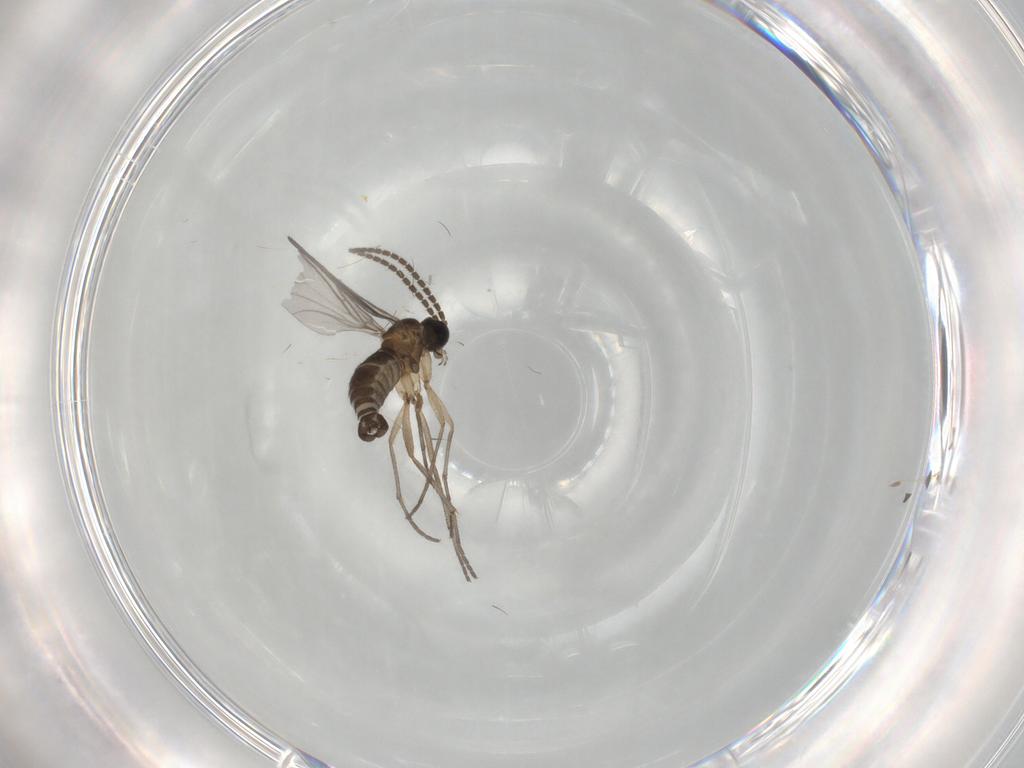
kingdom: Animalia
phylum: Arthropoda
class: Insecta
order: Diptera
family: Sciaridae
